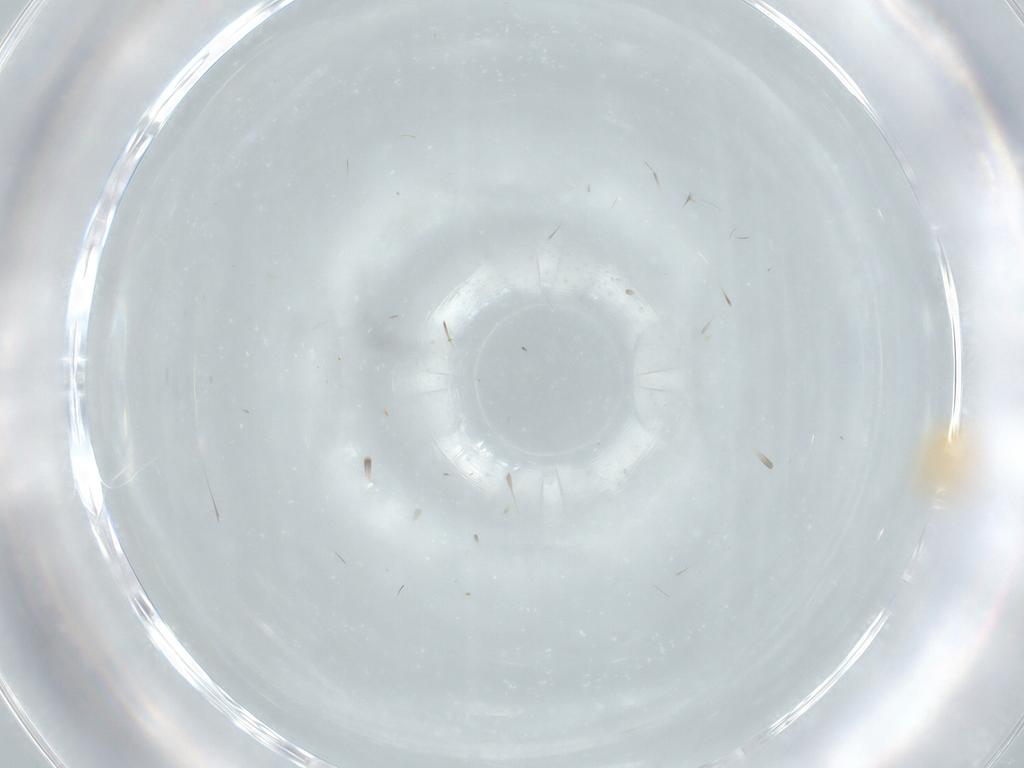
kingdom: Animalia
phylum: Arthropoda
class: Insecta
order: Diptera
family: Tephritidae
